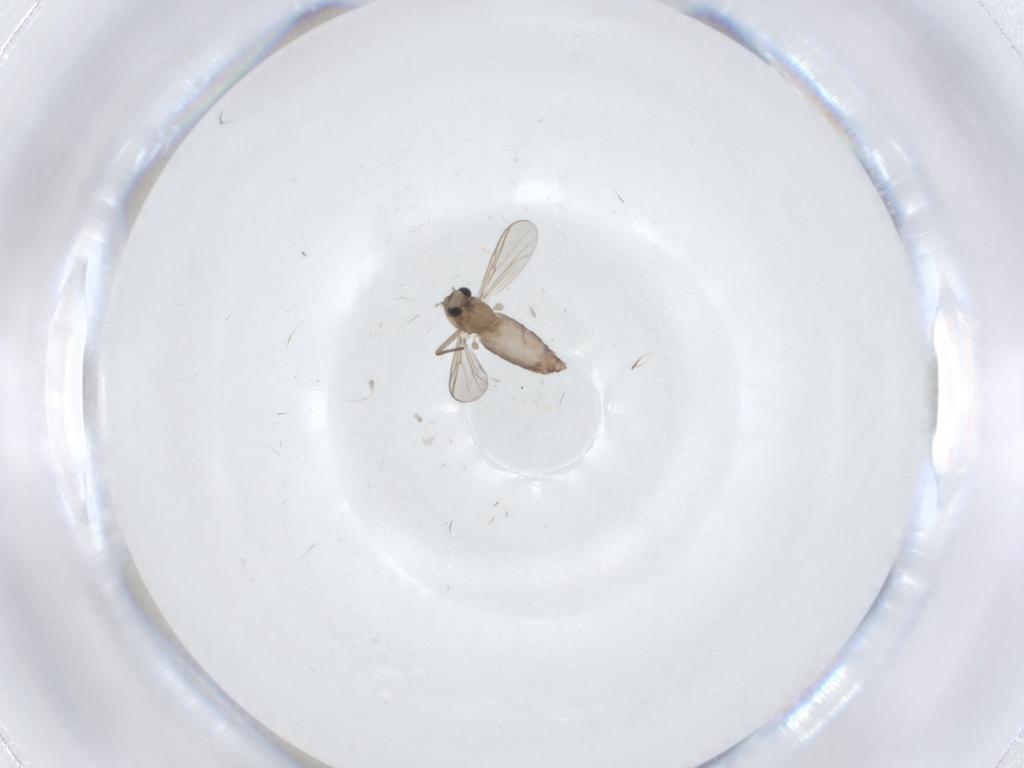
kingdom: Animalia
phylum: Arthropoda
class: Insecta
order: Diptera
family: Chironomidae
